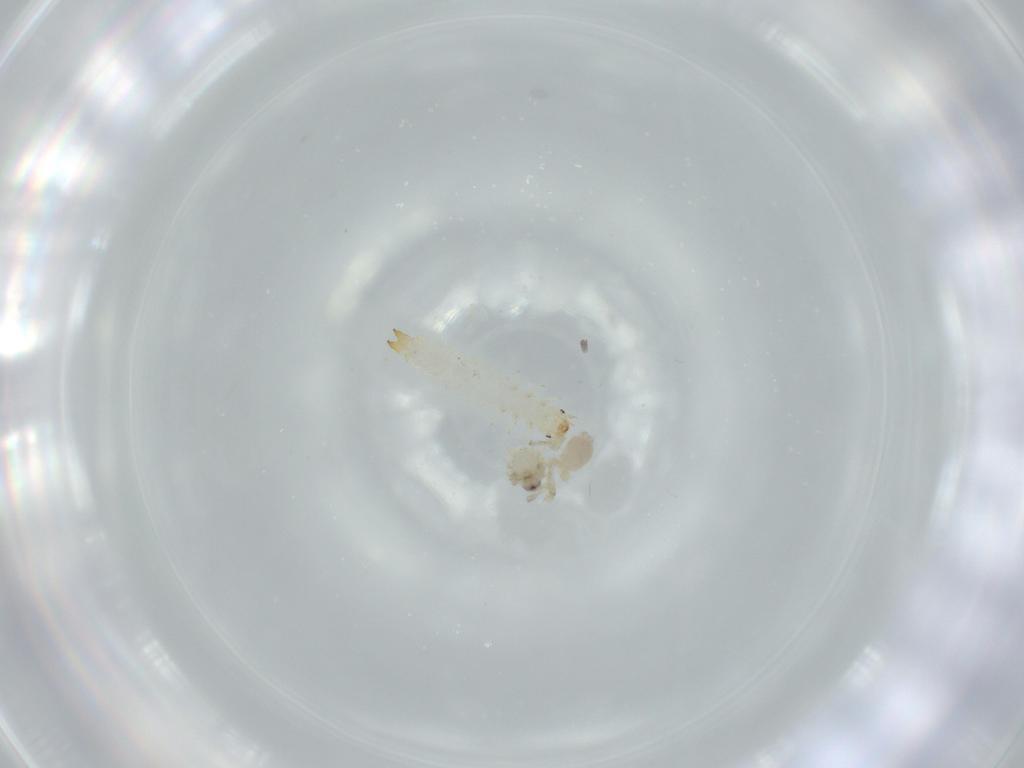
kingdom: Animalia
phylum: Arthropoda
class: Insecta
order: Coleoptera
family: Mycteridae
